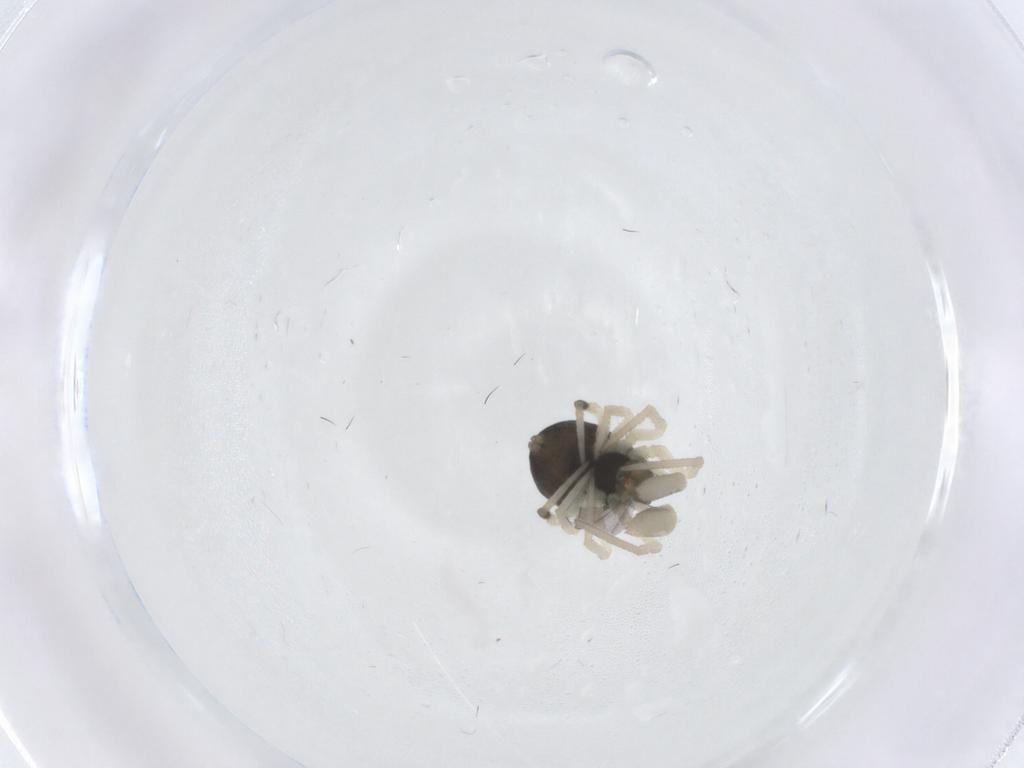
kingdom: Animalia
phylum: Arthropoda
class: Arachnida
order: Araneae
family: Theridiidae
